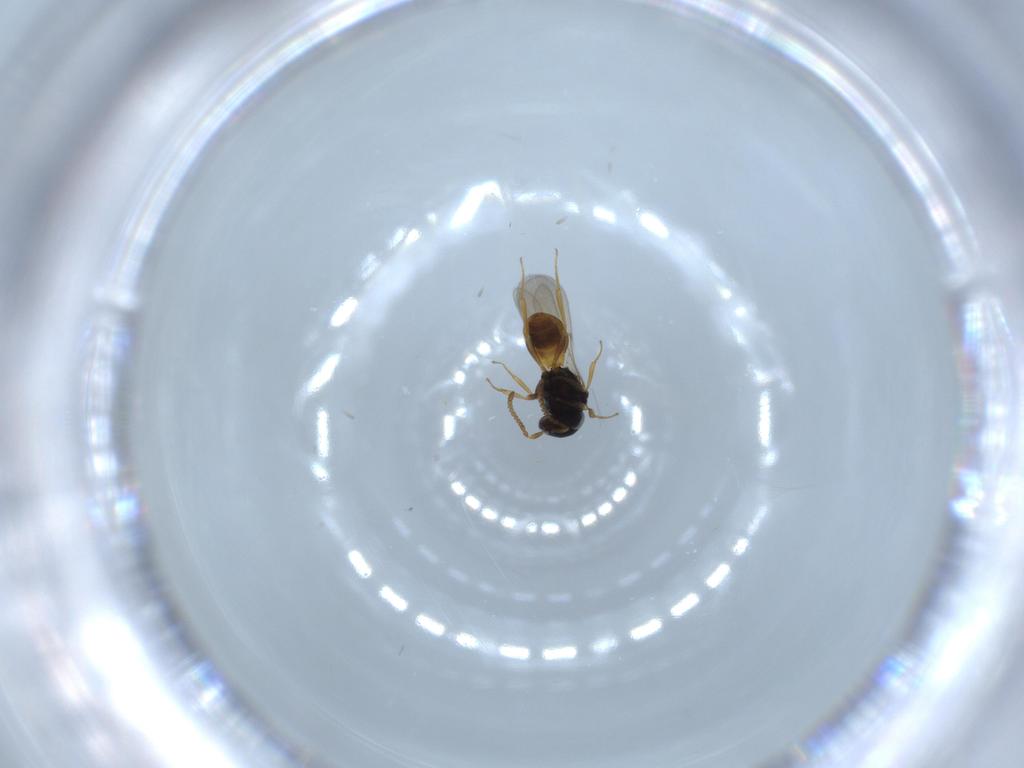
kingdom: Animalia
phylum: Arthropoda
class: Insecta
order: Hymenoptera
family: Scelionidae
